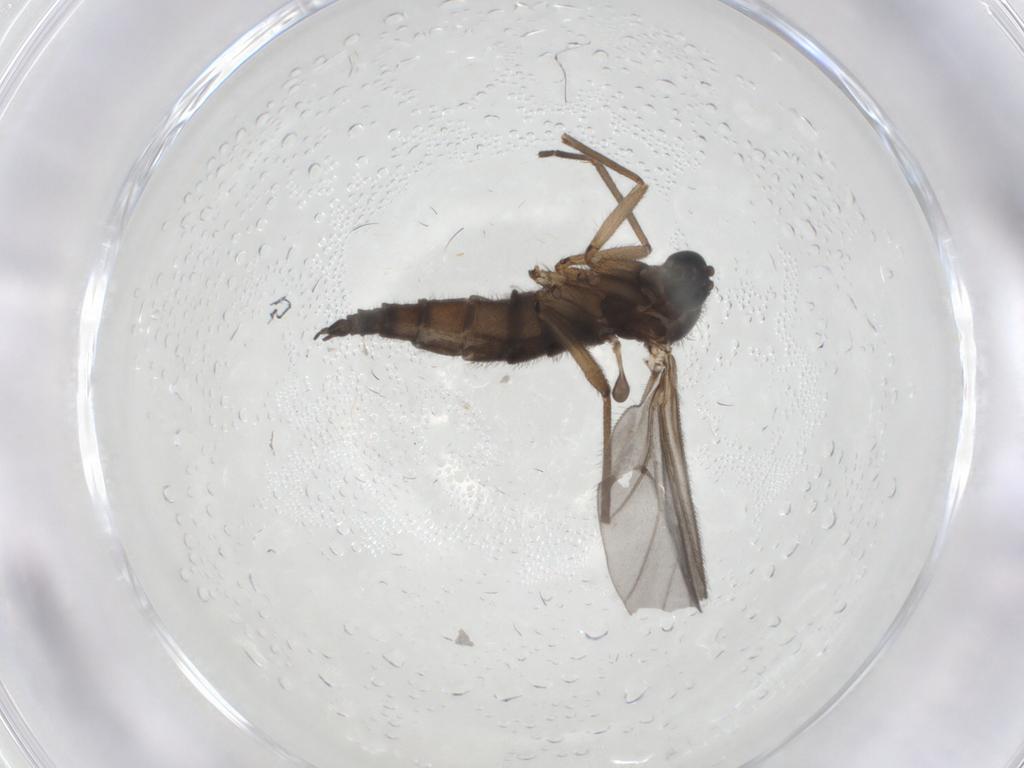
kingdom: Animalia
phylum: Arthropoda
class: Insecta
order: Diptera
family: Sciaridae
